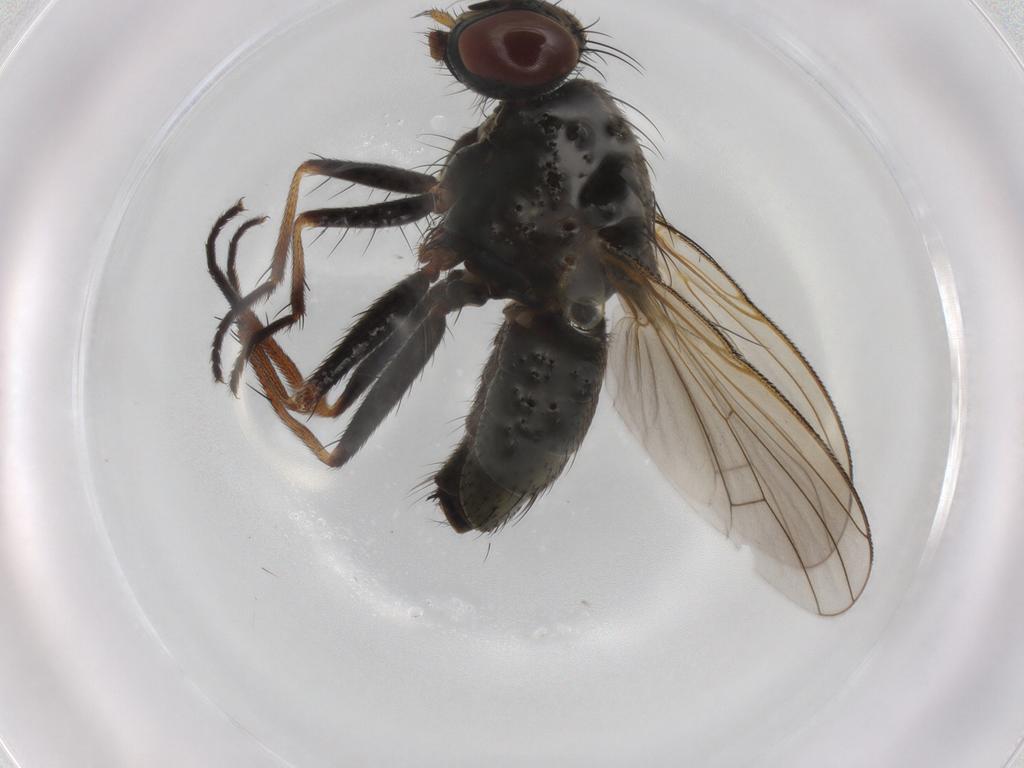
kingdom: Animalia
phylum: Arthropoda
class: Insecta
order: Diptera
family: Muscidae
